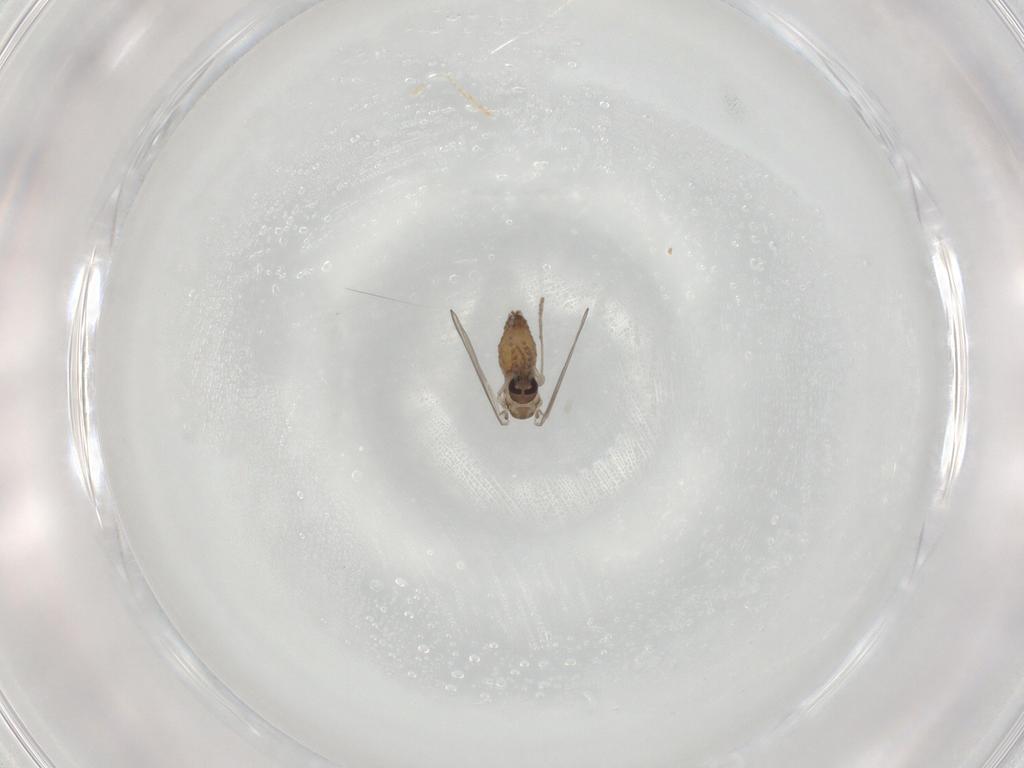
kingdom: Animalia
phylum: Arthropoda
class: Insecta
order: Diptera
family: Psychodidae
